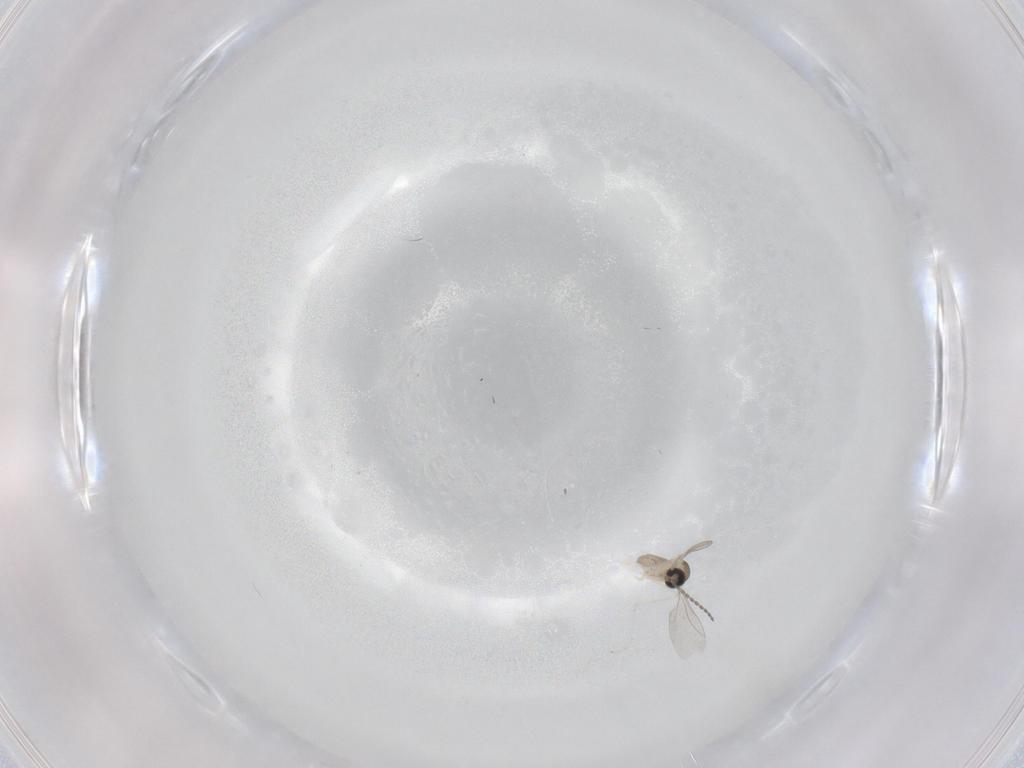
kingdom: Animalia
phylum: Arthropoda
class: Insecta
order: Diptera
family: Cecidomyiidae
